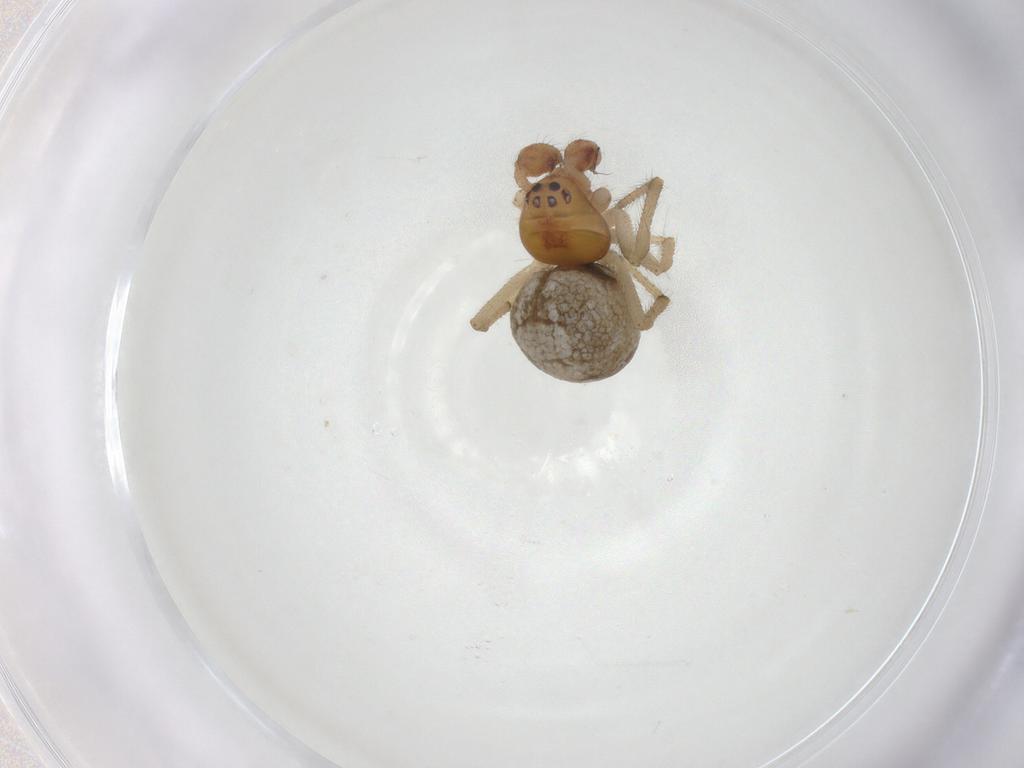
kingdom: Animalia
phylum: Arthropoda
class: Arachnida
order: Araneae
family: Theridiidae
